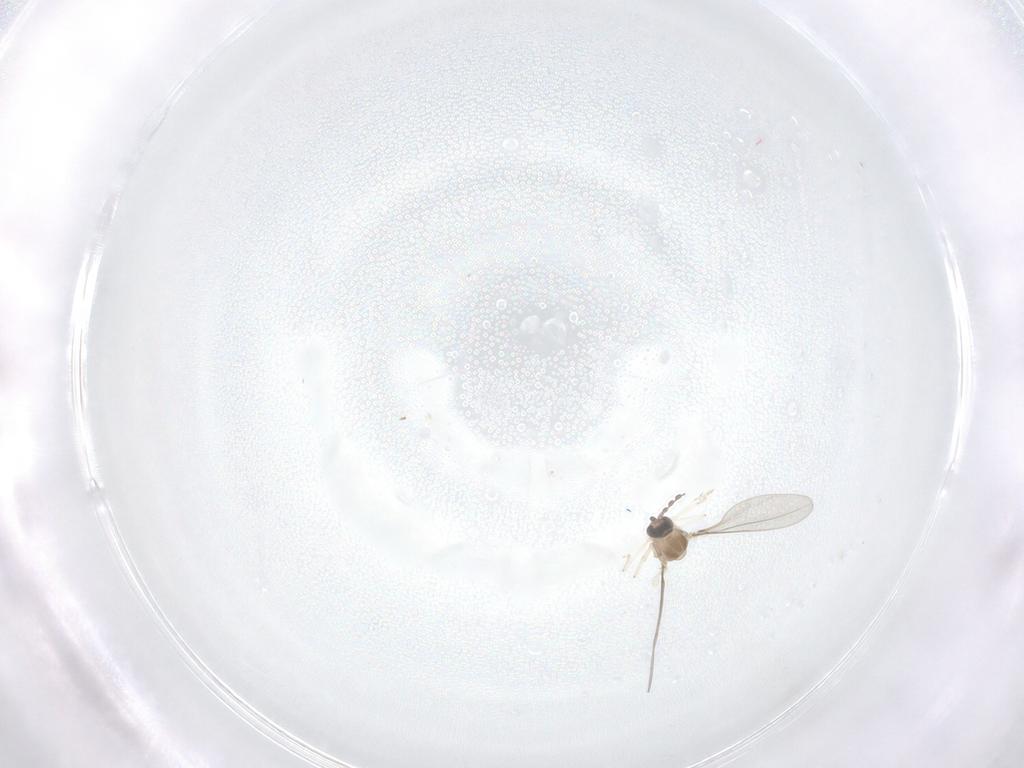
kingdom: Animalia
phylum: Arthropoda
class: Insecta
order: Diptera
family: Cecidomyiidae
